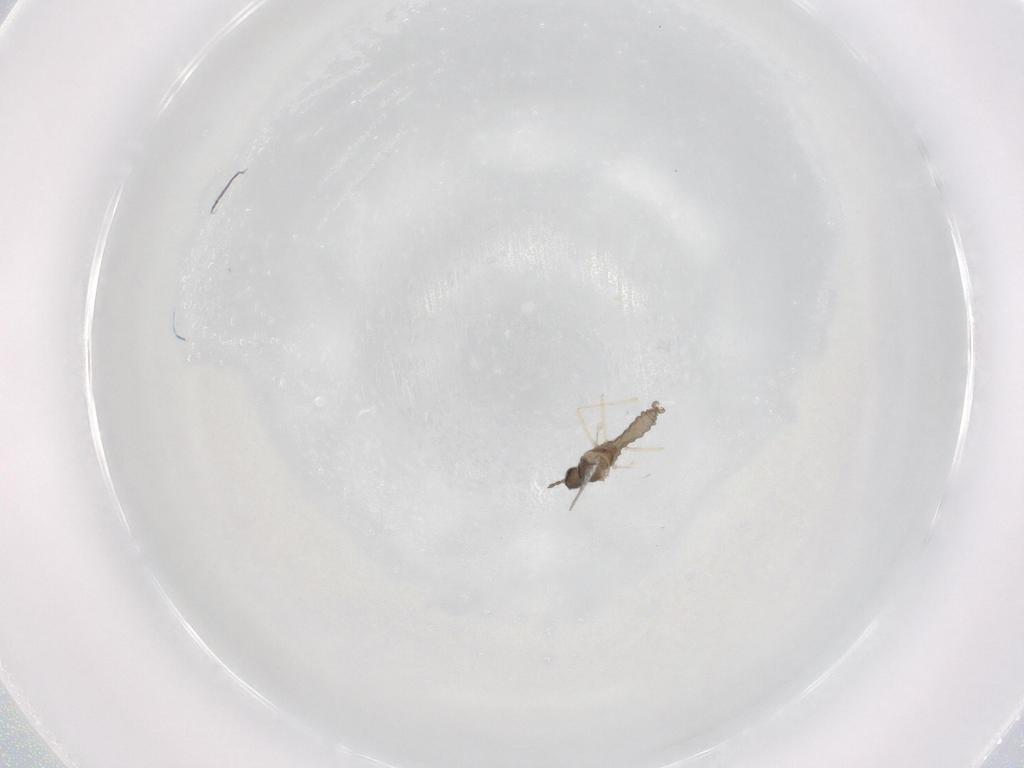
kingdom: Animalia
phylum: Arthropoda
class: Insecta
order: Diptera
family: Cecidomyiidae
